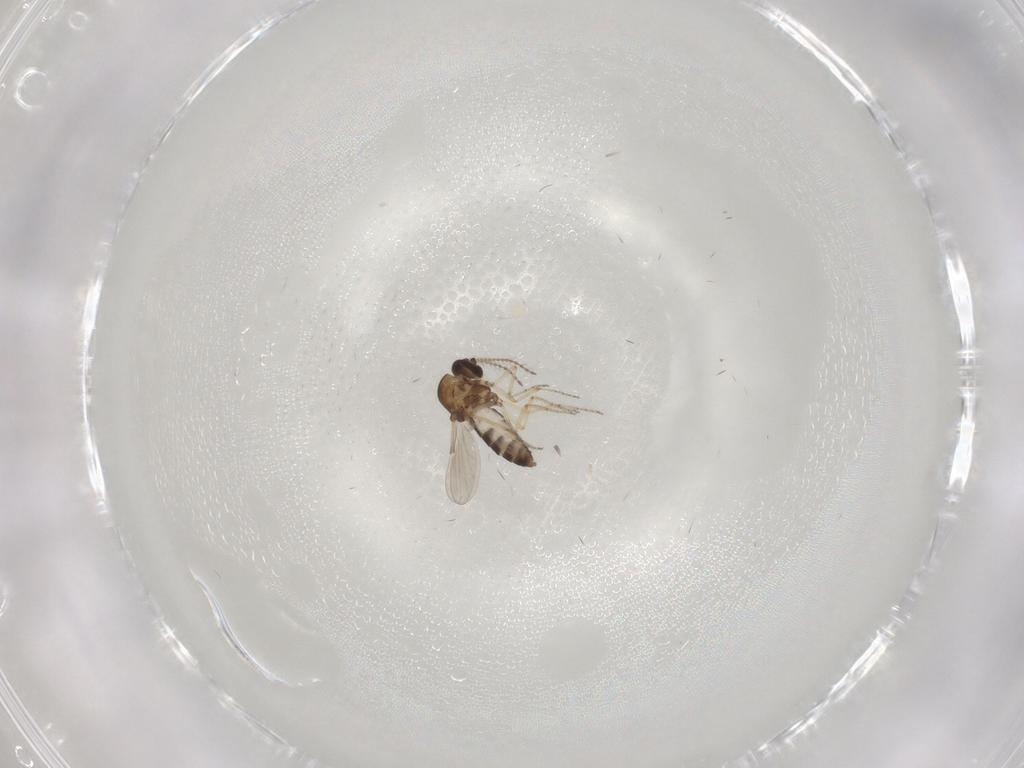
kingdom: Animalia
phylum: Arthropoda
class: Insecta
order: Diptera
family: Ceratopogonidae
